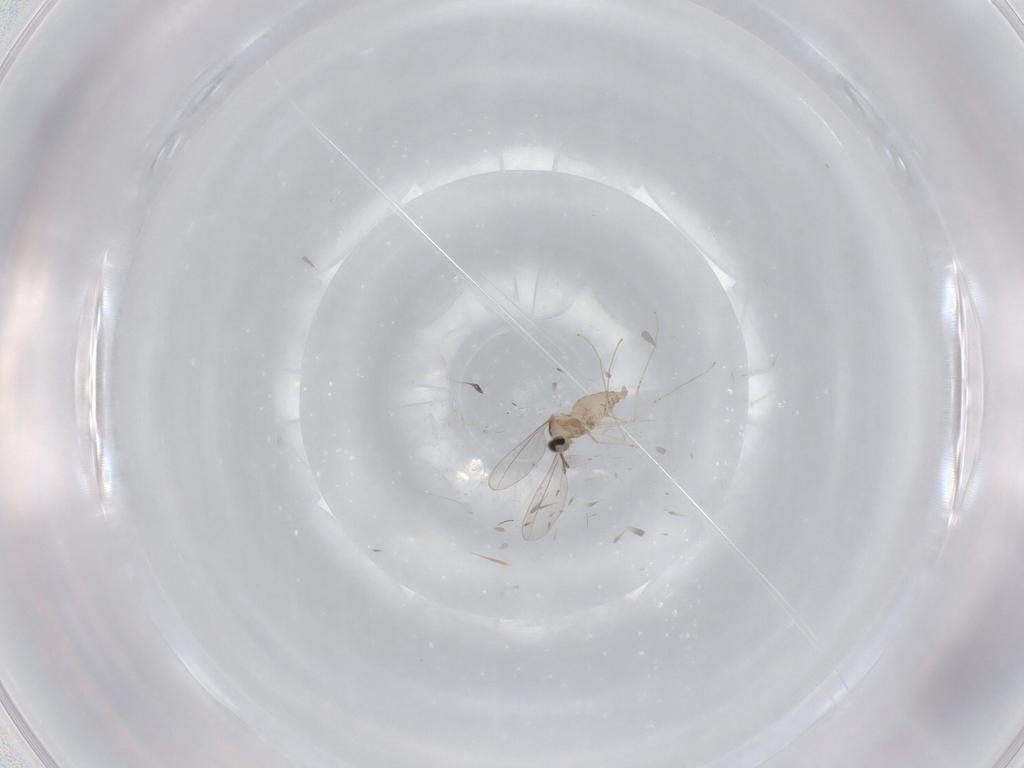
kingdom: Animalia
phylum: Arthropoda
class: Insecta
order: Diptera
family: Cecidomyiidae
